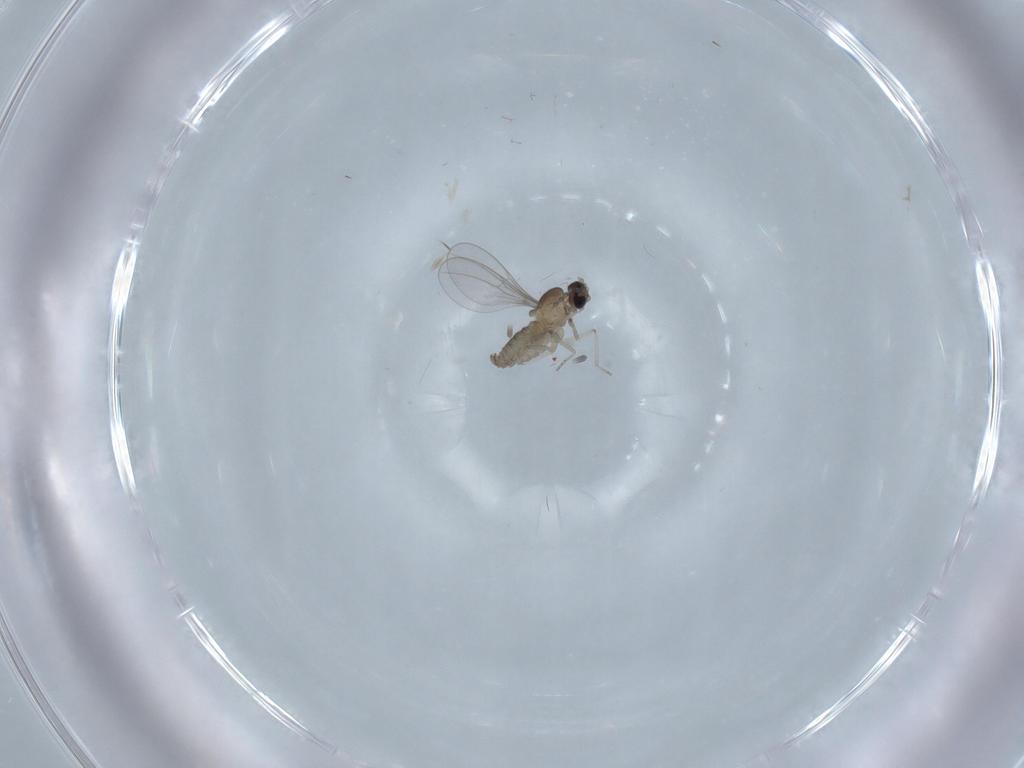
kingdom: Animalia
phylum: Arthropoda
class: Insecta
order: Diptera
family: Cecidomyiidae
